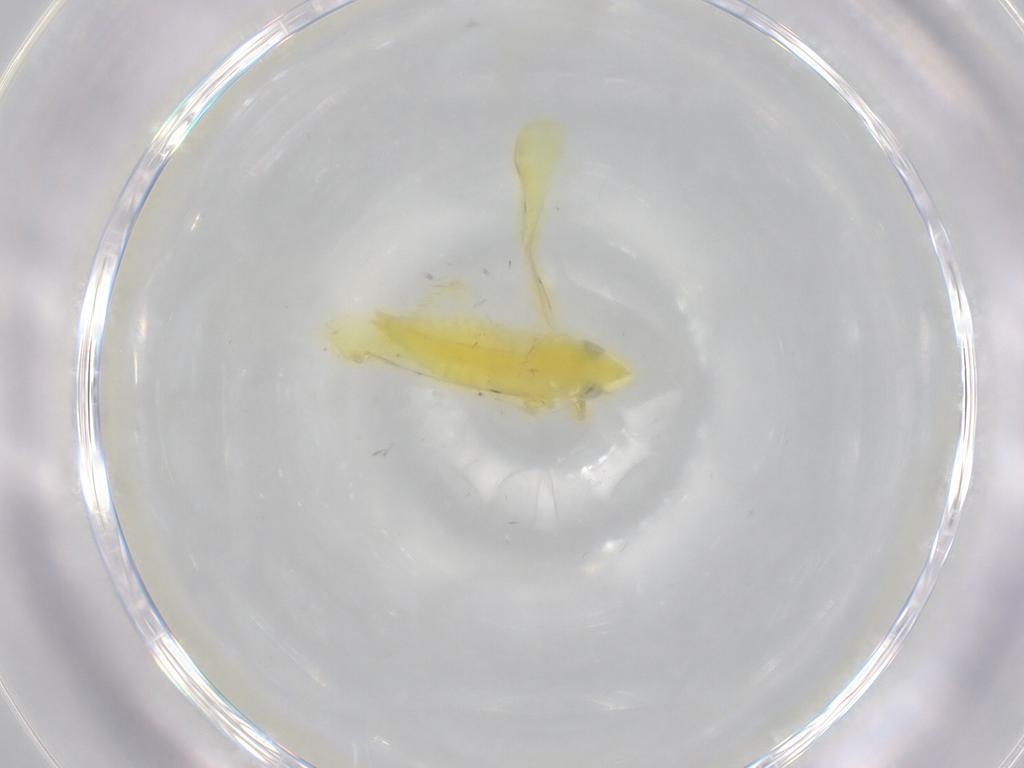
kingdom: Animalia
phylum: Arthropoda
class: Insecta
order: Hemiptera
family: Cicadellidae
